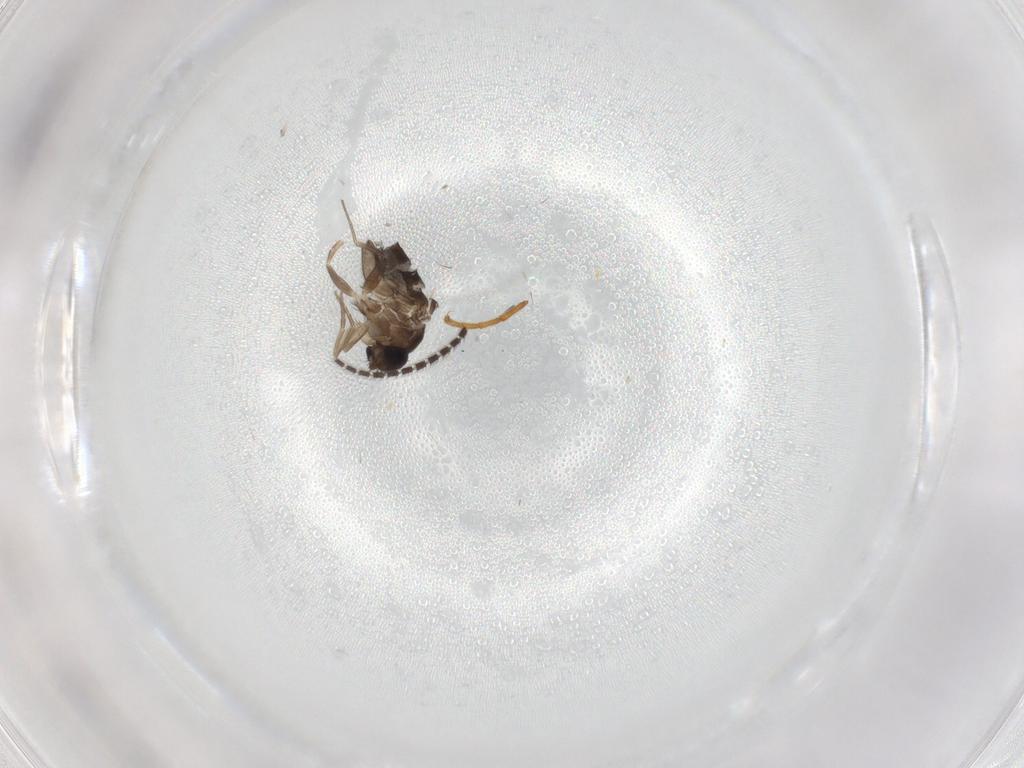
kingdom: Animalia
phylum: Arthropoda
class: Insecta
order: Diptera
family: Phoridae
